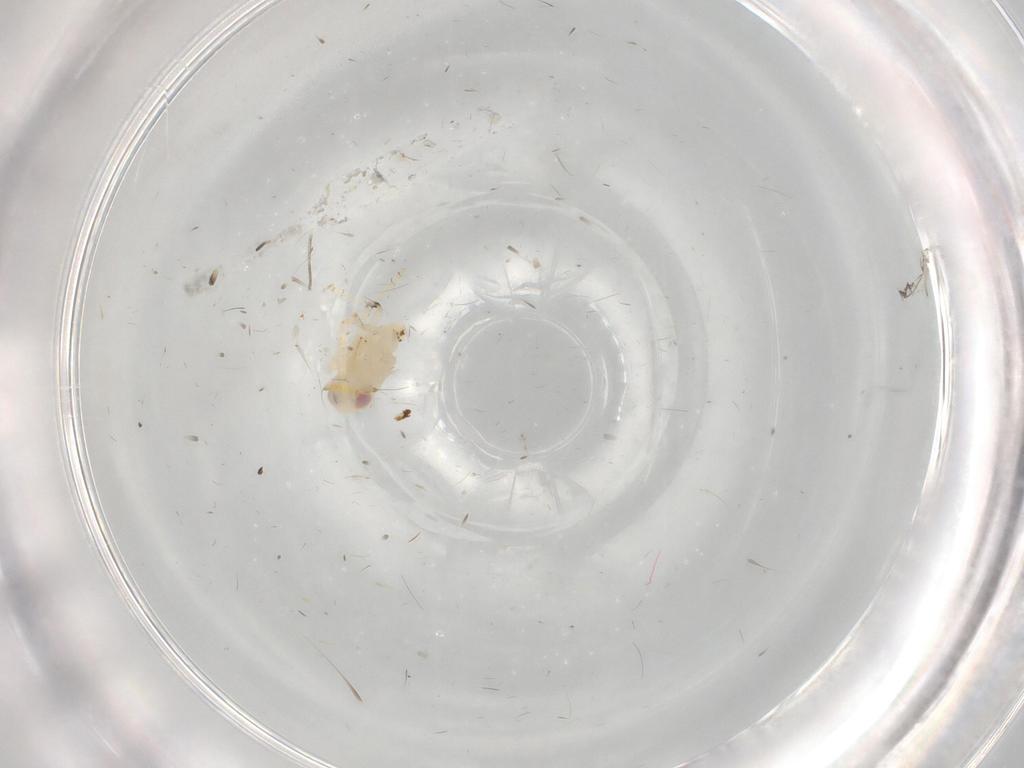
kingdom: Animalia
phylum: Arthropoda
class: Insecta
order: Hemiptera
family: Nogodinidae
